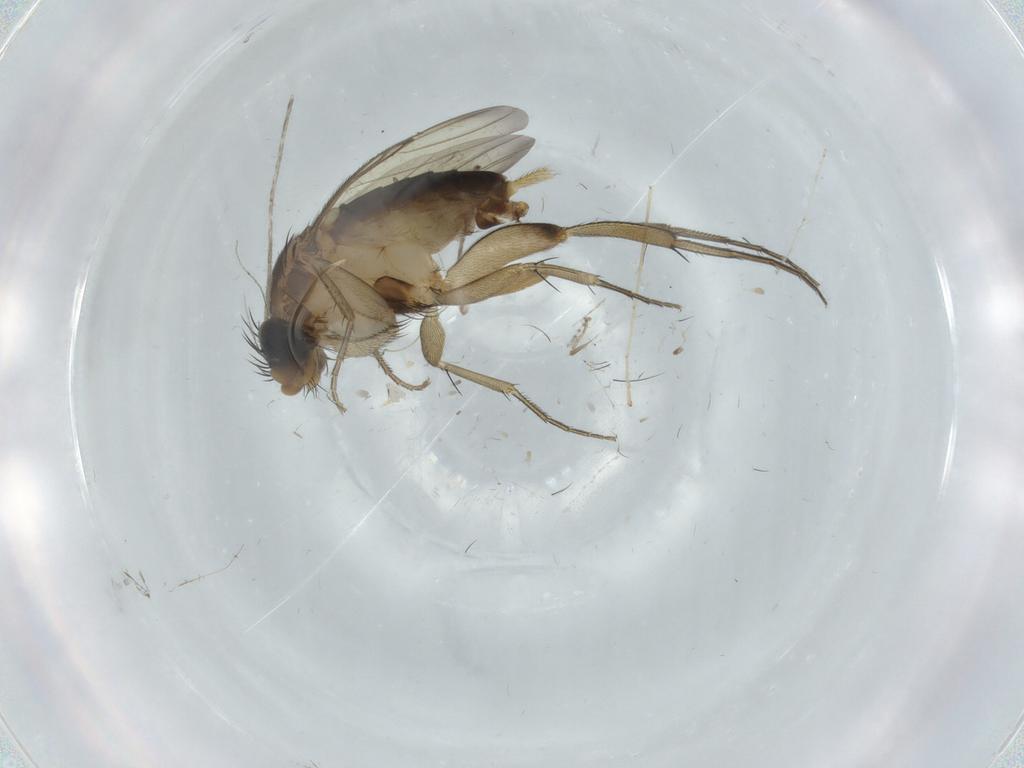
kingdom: Animalia
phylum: Arthropoda
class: Insecta
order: Diptera
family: Phoridae
